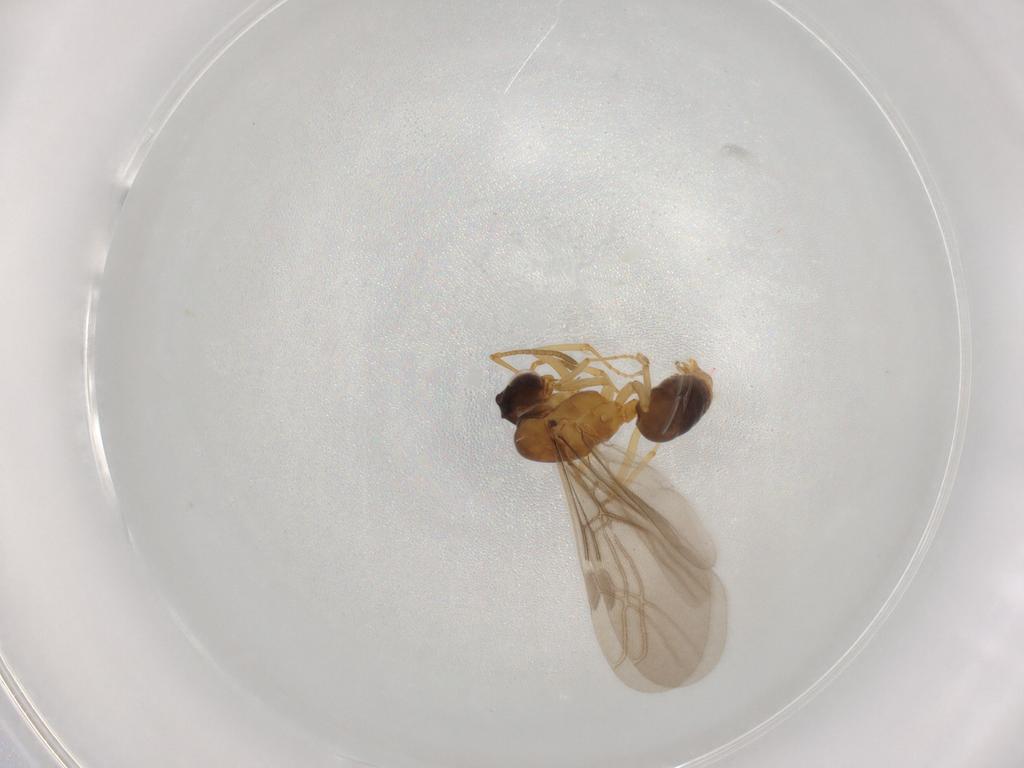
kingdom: Animalia
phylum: Arthropoda
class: Insecta
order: Hymenoptera
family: Formicidae
